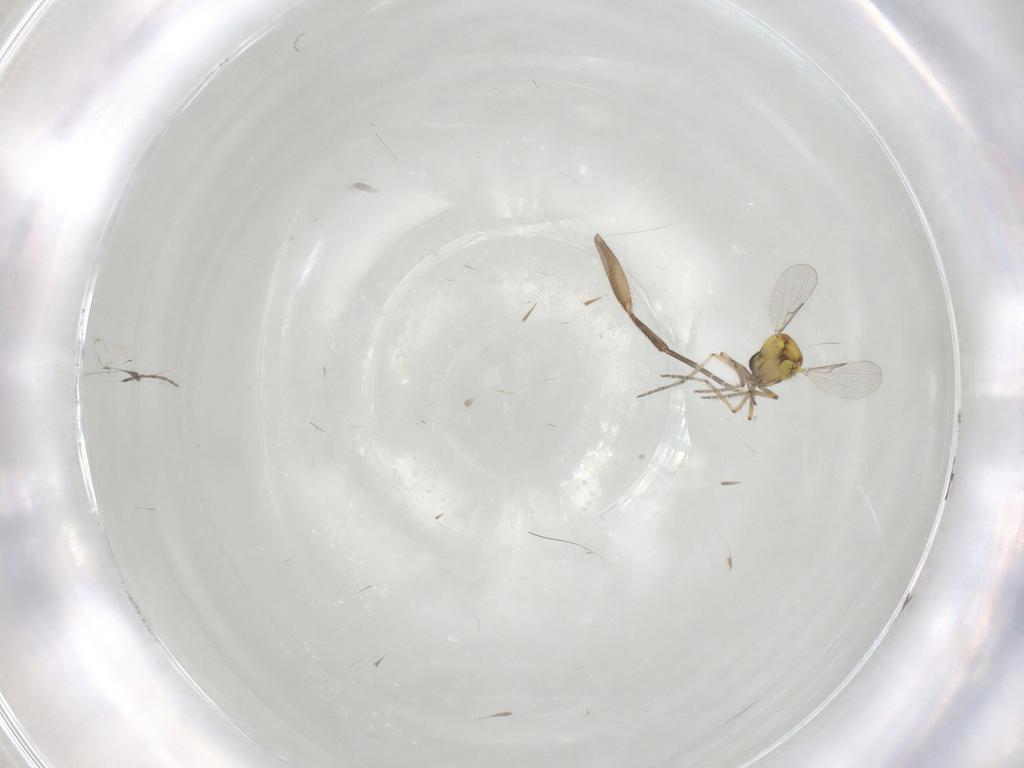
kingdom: Animalia
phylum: Arthropoda
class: Insecta
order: Diptera
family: Phoridae
